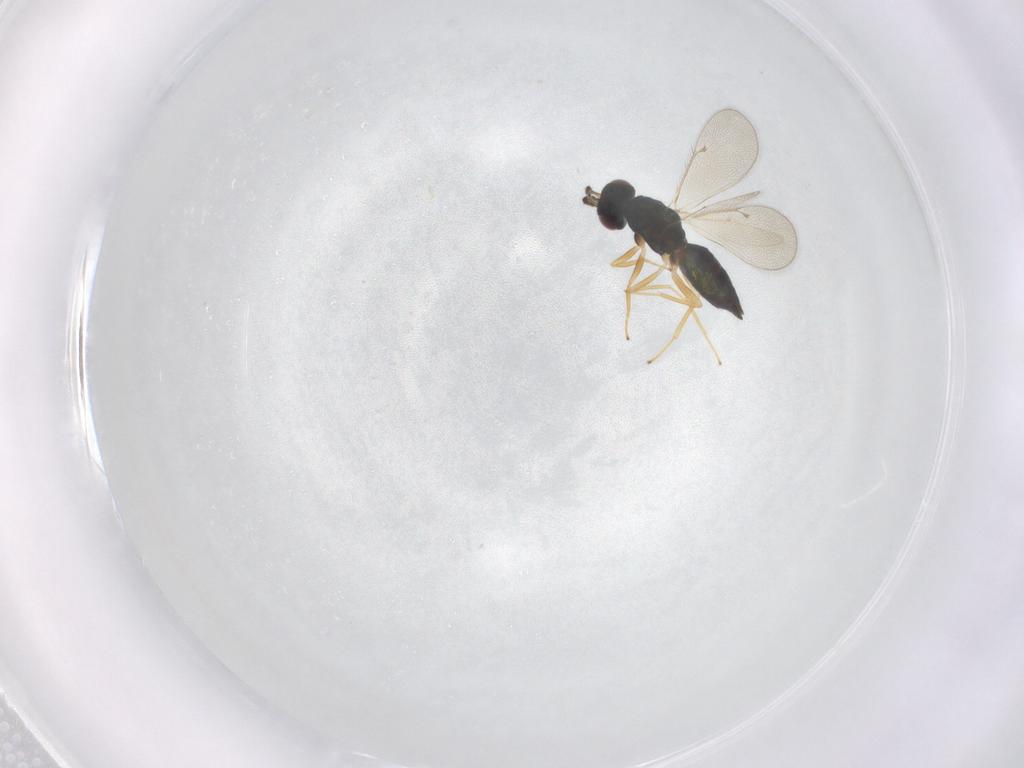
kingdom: Animalia
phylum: Arthropoda
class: Insecta
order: Hymenoptera
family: Eulophidae
